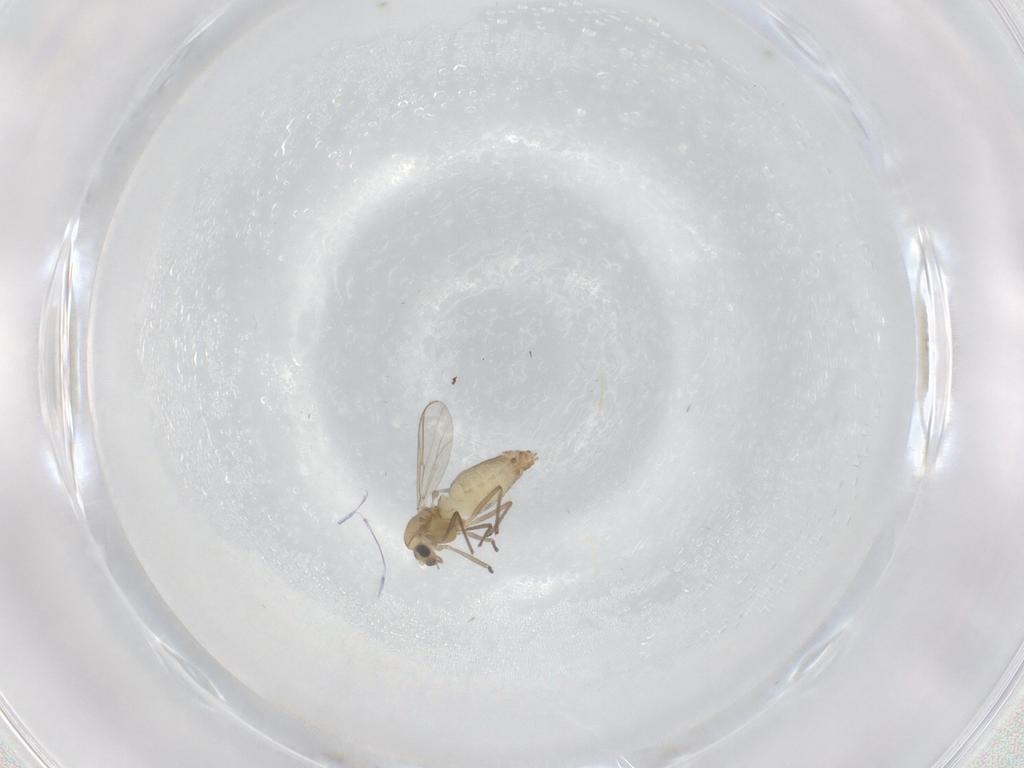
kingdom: Animalia
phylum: Arthropoda
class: Insecta
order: Diptera
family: Chironomidae
